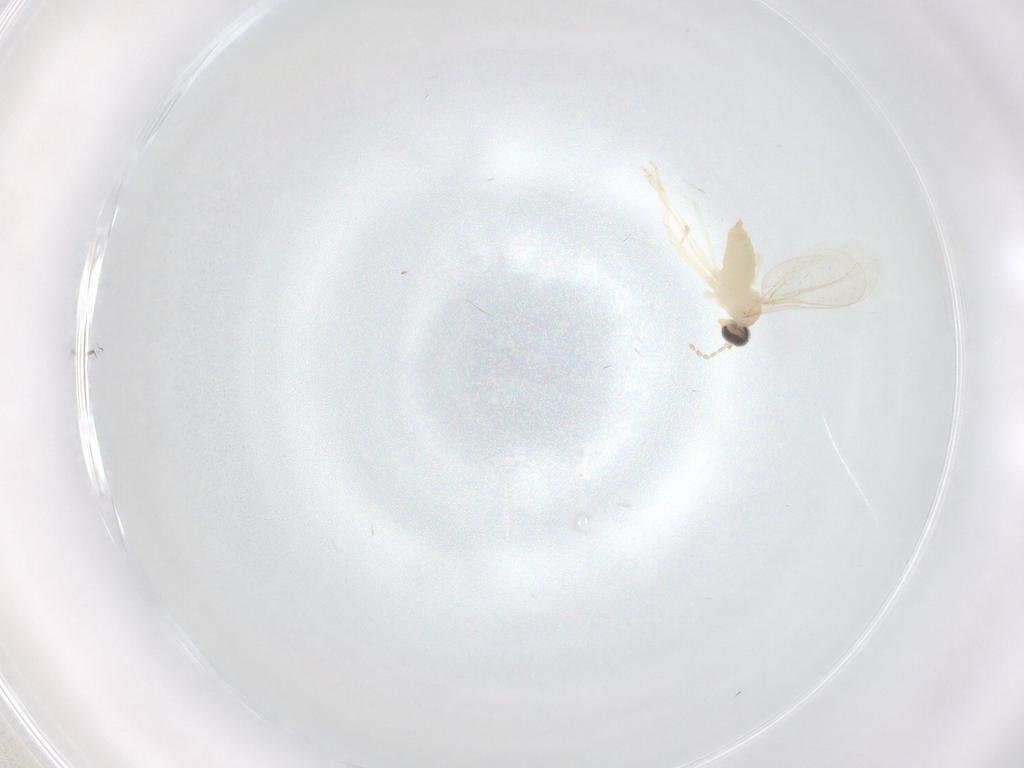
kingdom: Animalia
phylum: Arthropoda
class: Insecta
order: Diptera
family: Cecidomyiidae
